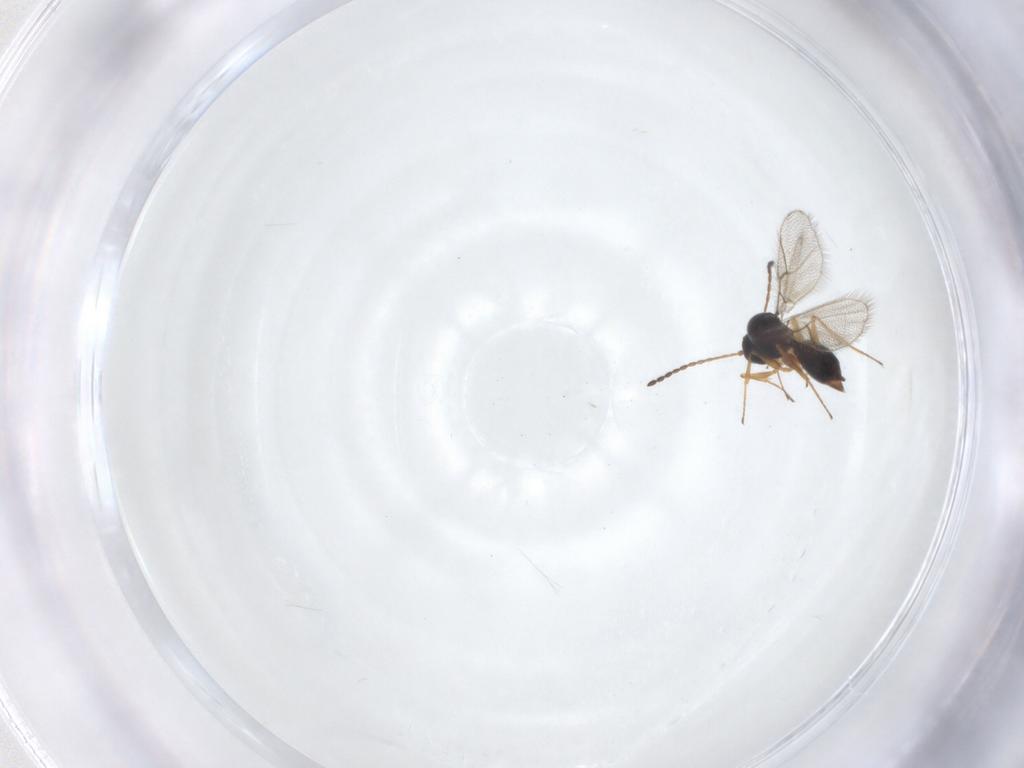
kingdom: Animalia
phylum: Arthropoda
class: Insecta
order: Hymenoptera
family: Figitidae
